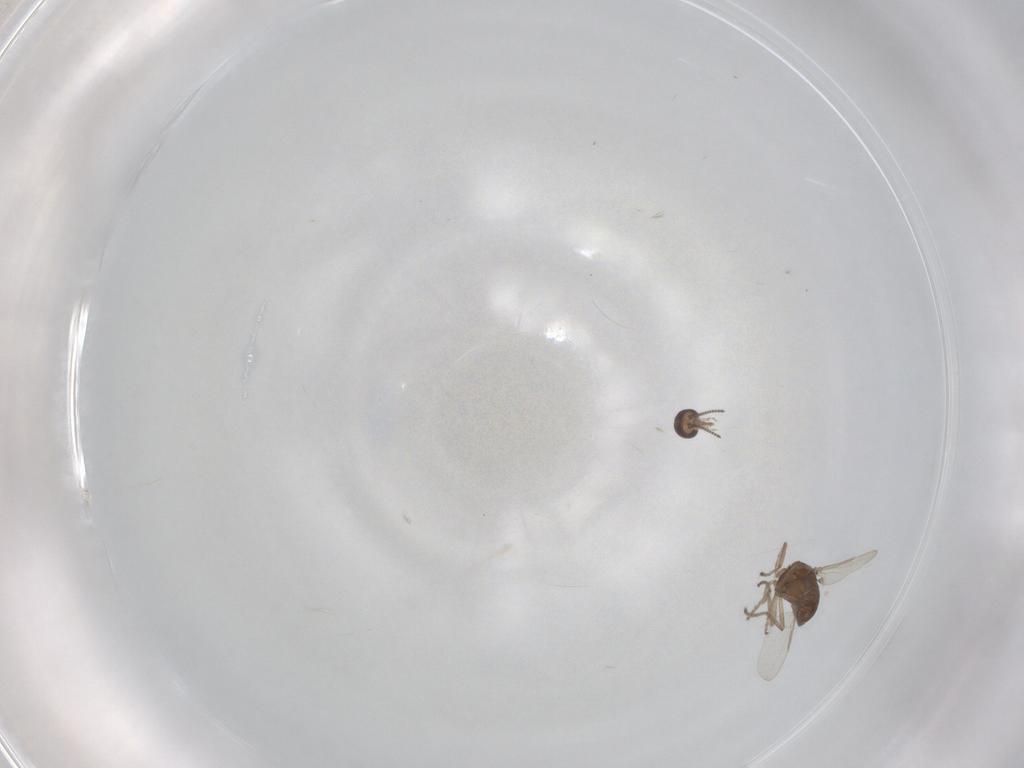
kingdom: Animalia
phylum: Arthropoda
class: Insecta
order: Diptera
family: Ceratopogonidae
